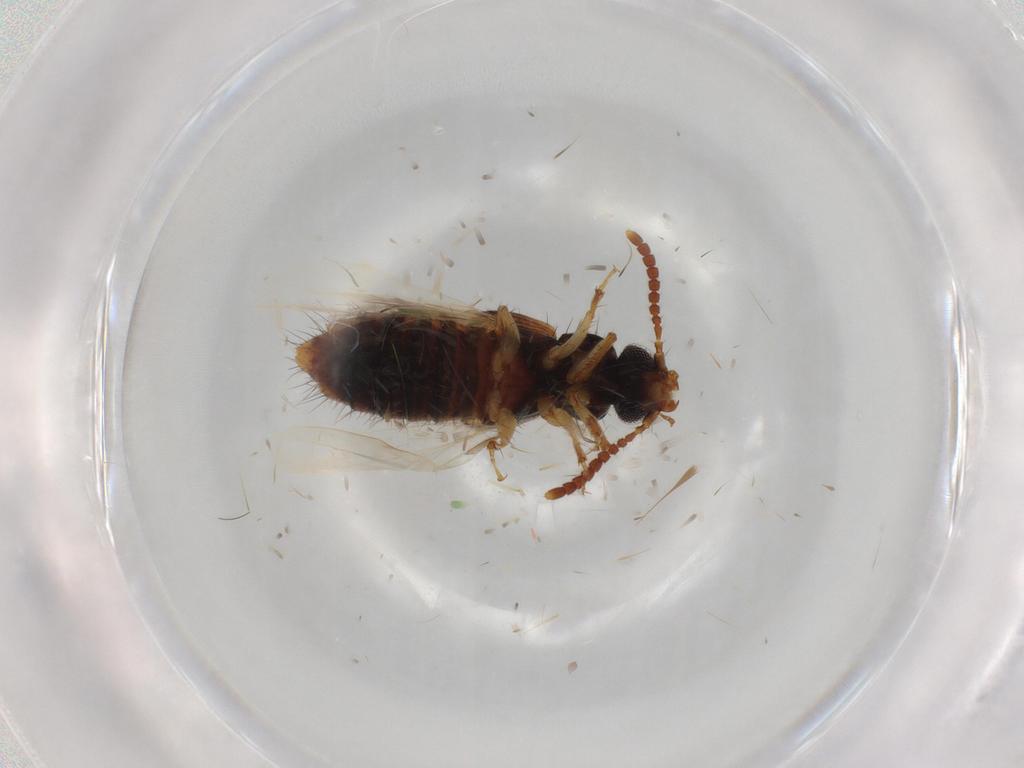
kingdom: Animalia
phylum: Arthropoda
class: Insecta
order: Coleoptera
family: Staphylinidae
